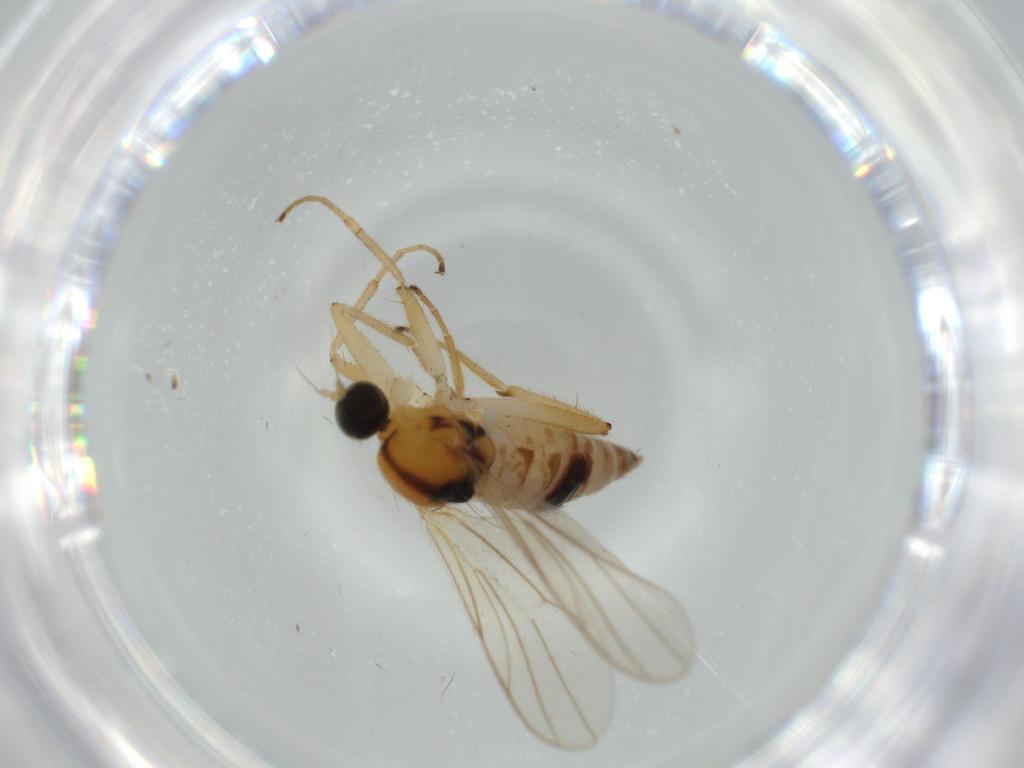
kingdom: Animalia
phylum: Arthropoda
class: Insecta
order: Diptera
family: Hybotidae
